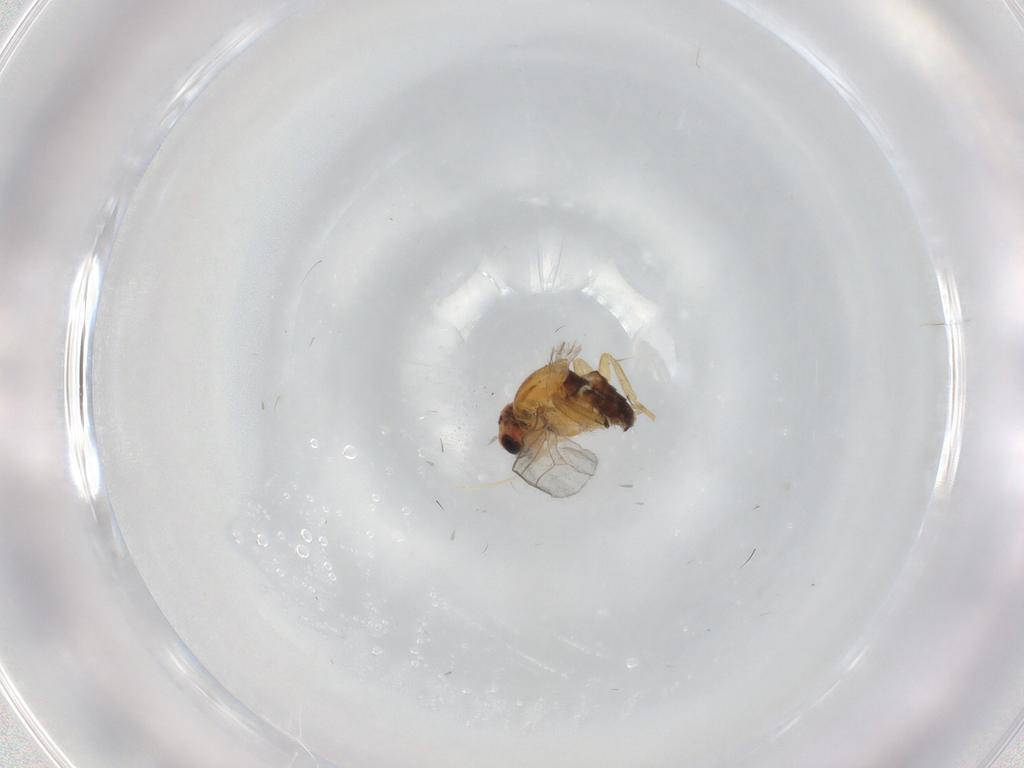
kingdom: Animalia
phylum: Arthropoda
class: Insecta
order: Diptera
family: Chloropidae
